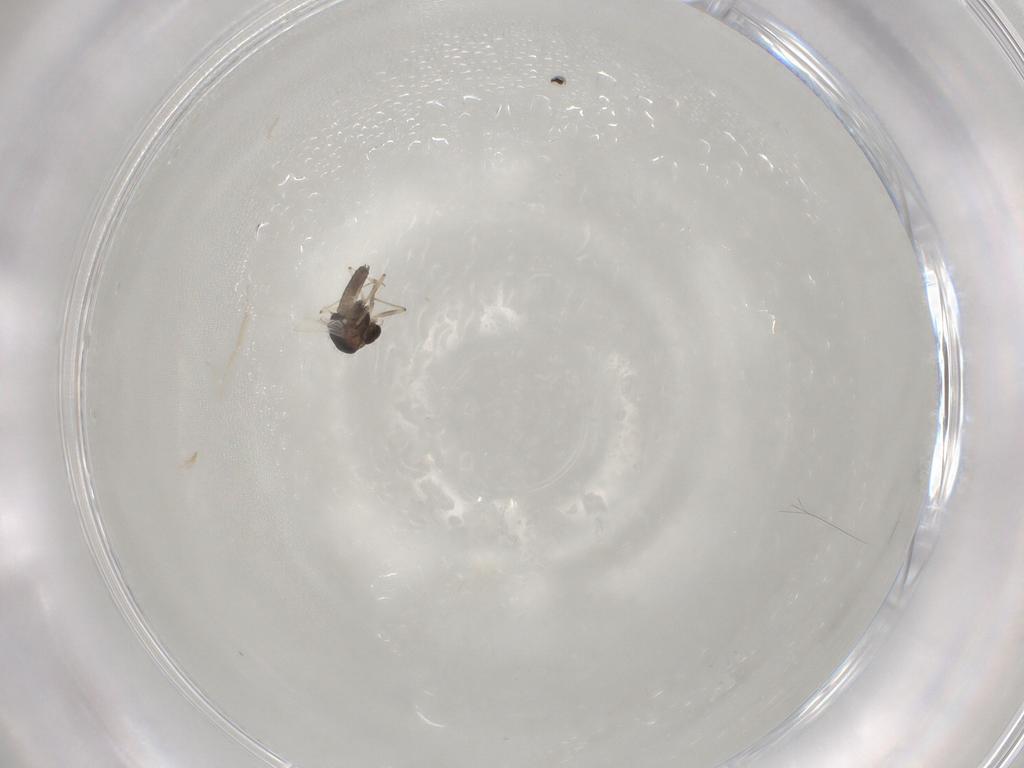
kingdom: Animalia
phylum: Arthropoda
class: Insecta
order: Diptera
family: Chironomidae
